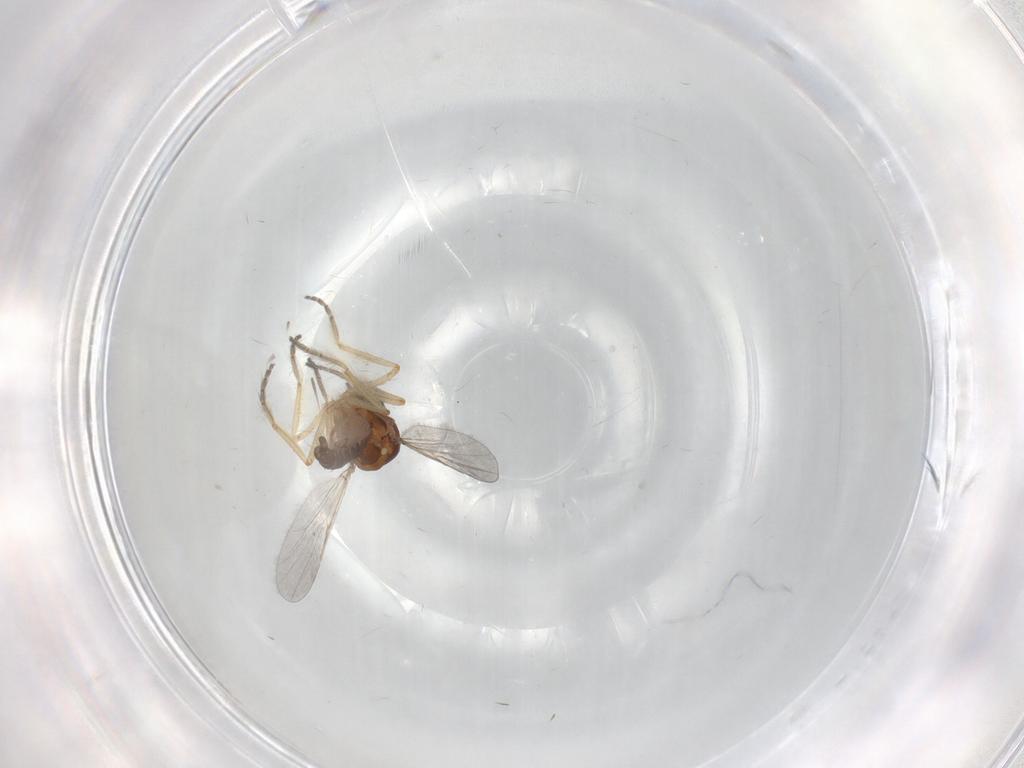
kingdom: Animalia
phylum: Arthropoda
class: Insecta
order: Diptera
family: Ceratopogonidae
